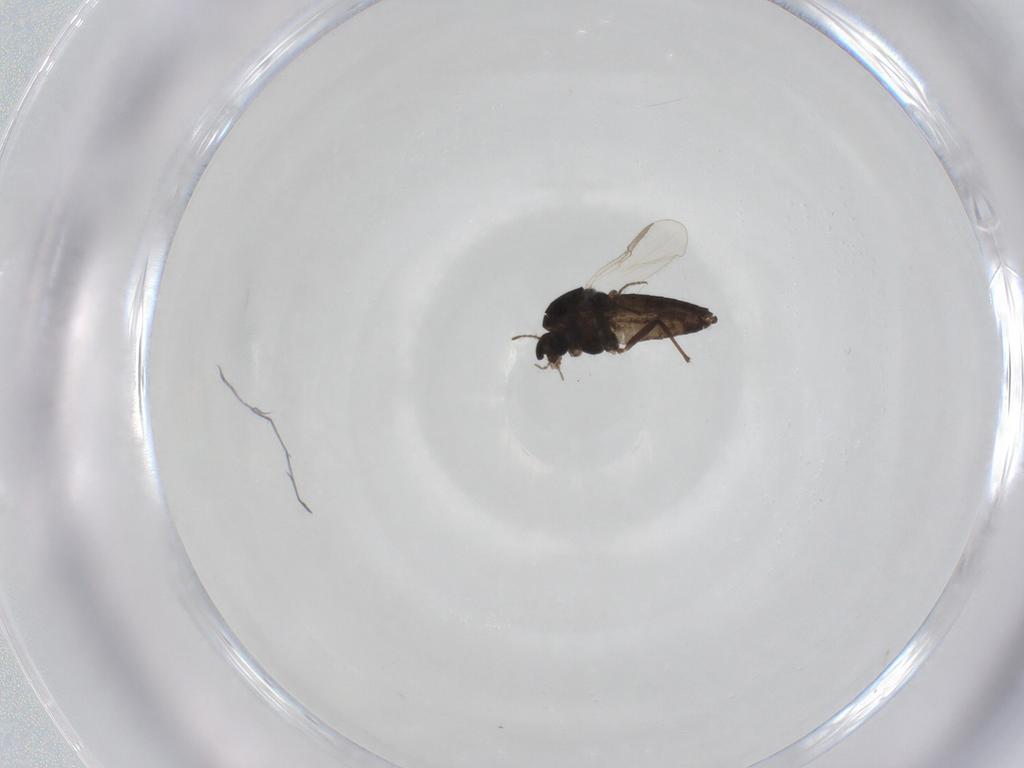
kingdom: Animalia
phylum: Arthropoda
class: Insecta
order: Diptera
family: Chironomidae
